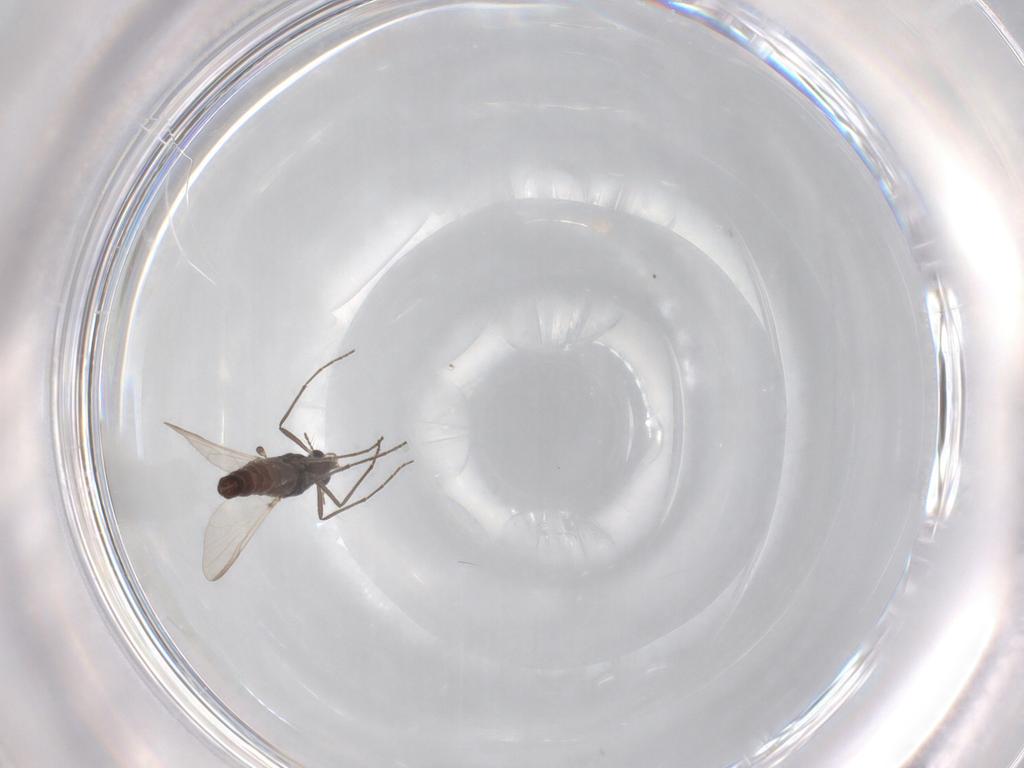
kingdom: Animalia
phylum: Arthropoda
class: Insecta
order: Diptera
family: Chironomidae
